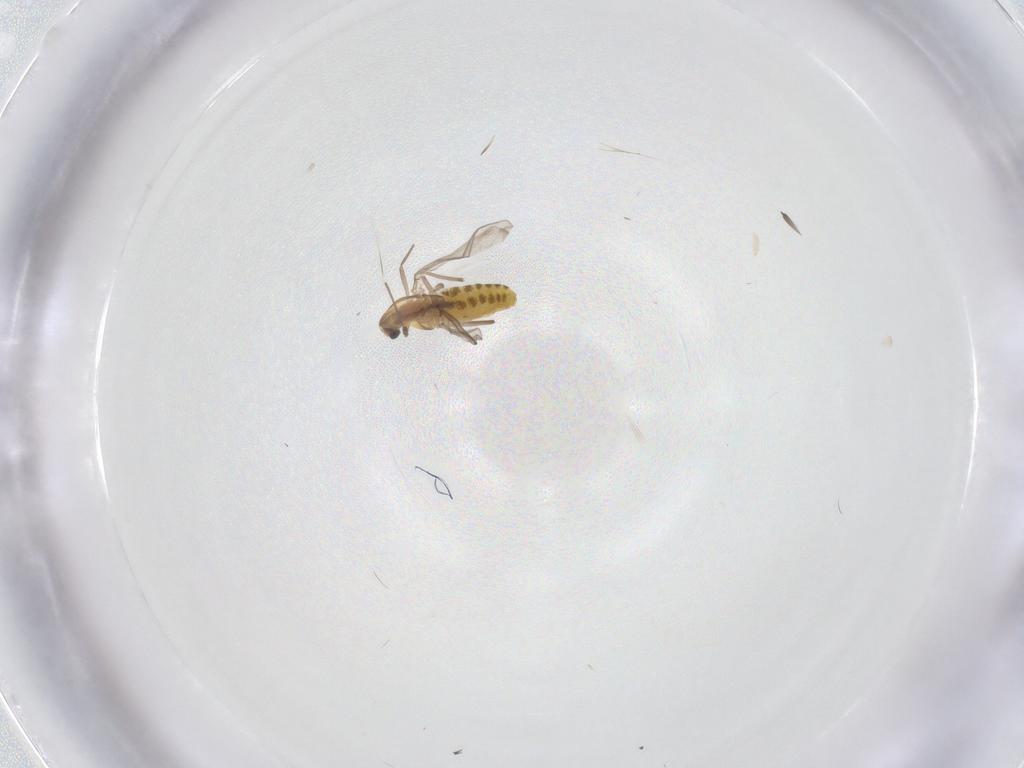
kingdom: Animalia
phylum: Arthropoda
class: Insecta
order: Diptera
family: Chironomidae
